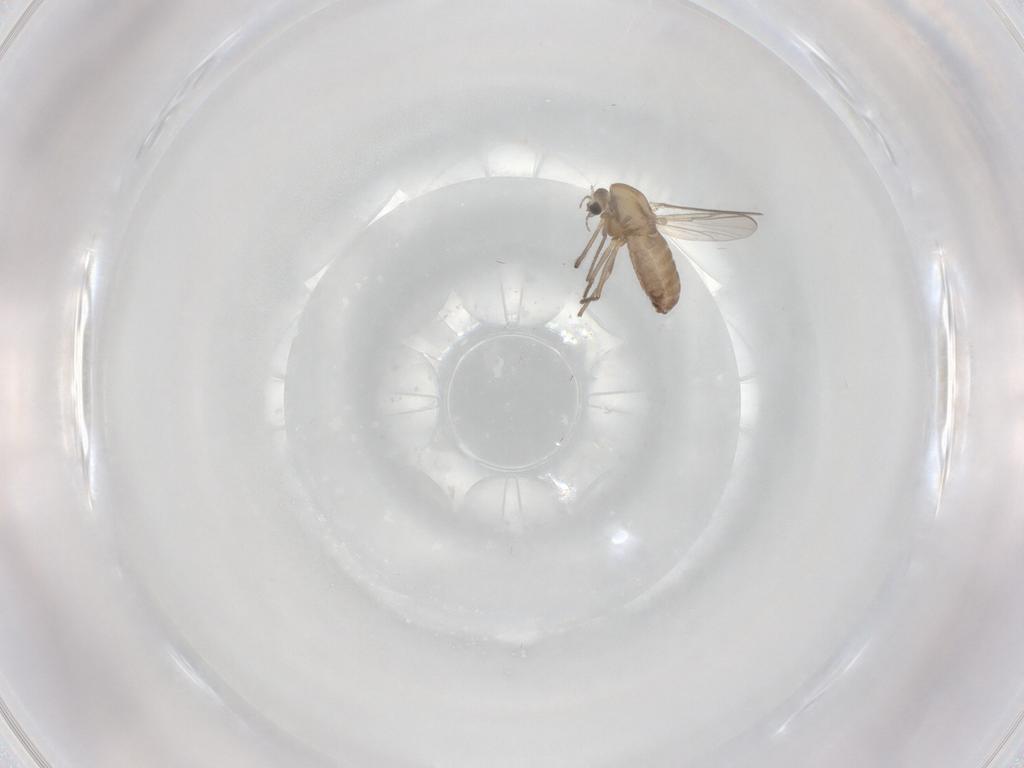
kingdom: Animalia
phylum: Arthropoda
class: Insecta
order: Diptera
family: Chironomidae
